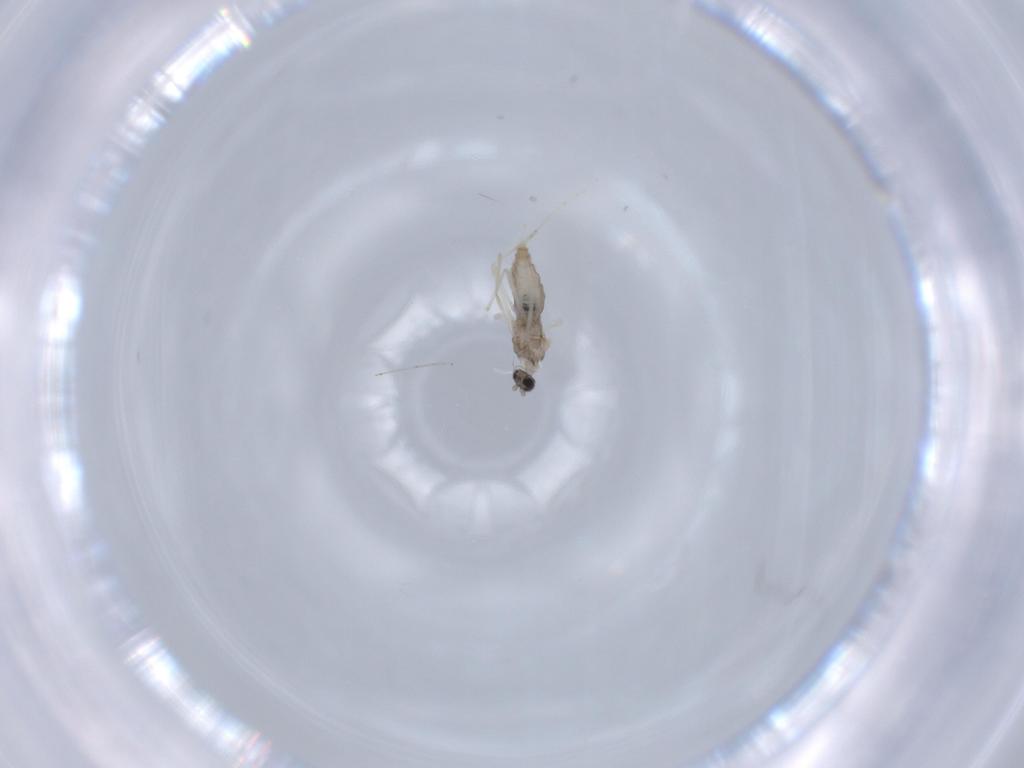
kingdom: Animalia
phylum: Arthropoda
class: Insecta
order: Diptera
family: Cecidomyiidae
